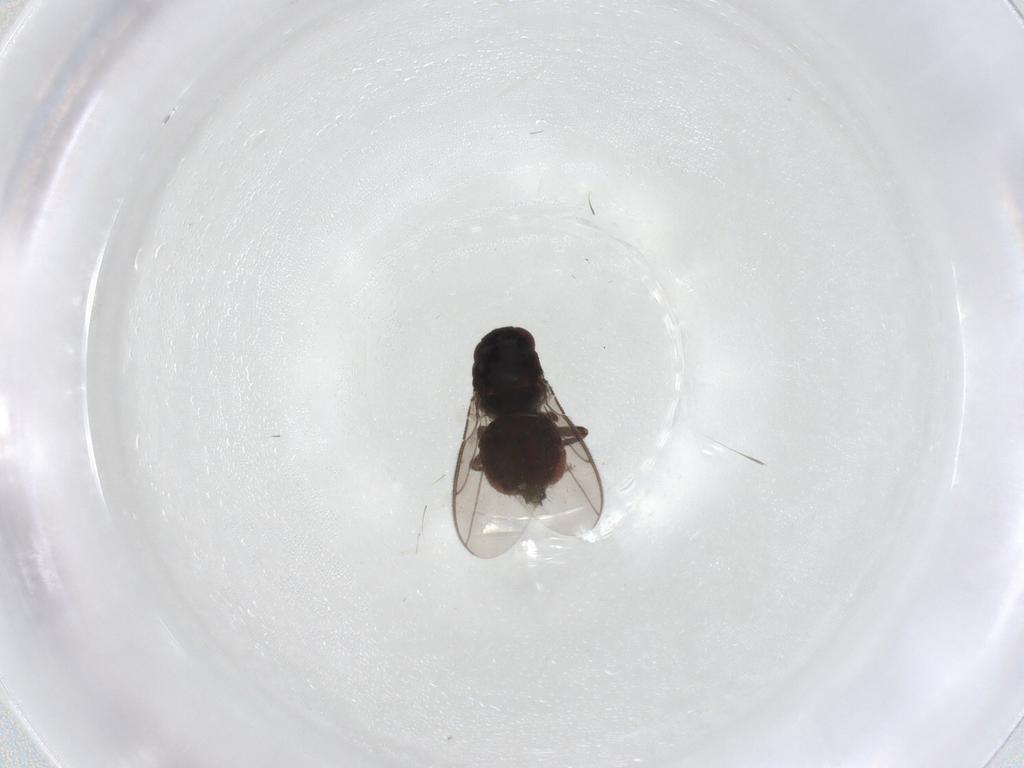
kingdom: Animalia
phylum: Arthropoda
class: Insecta
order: Diptera
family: Sphaeroceridae
